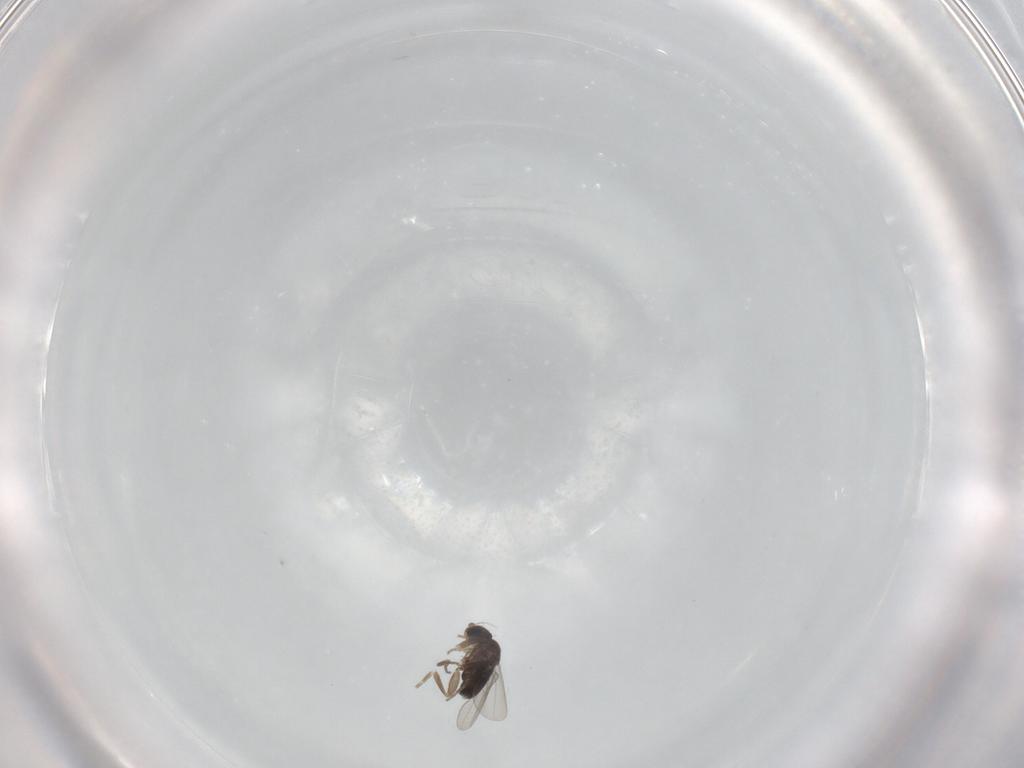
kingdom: Animalia
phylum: Arthropoda
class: Insecta
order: Diptera
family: Phoridae
